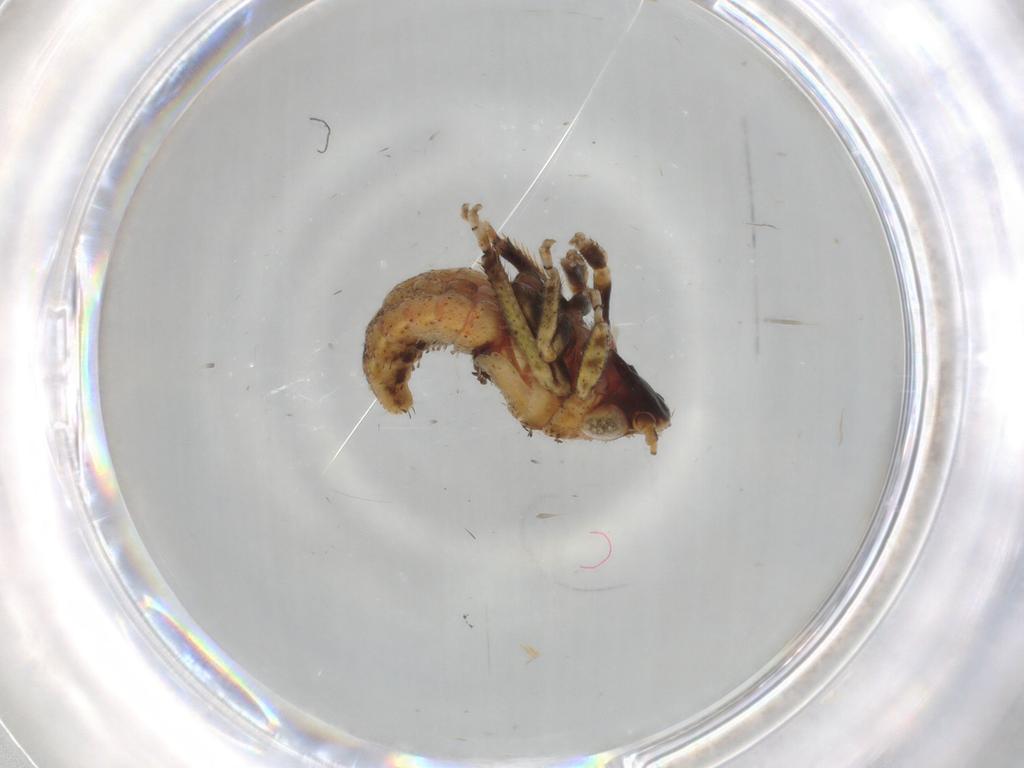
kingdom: Animalia
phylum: Arthropoda
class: Insecta
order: Hemiptera
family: Cicadellidae
